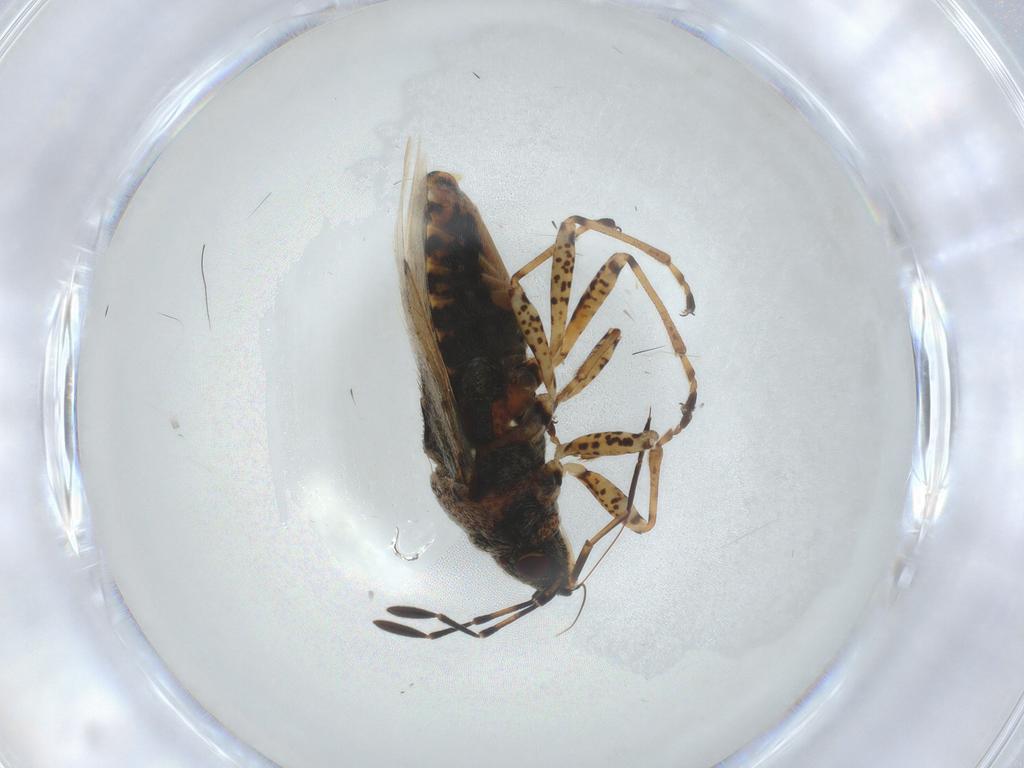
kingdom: Animalia
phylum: Arthropoda
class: Insecta
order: Hemiptera
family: Lygaeidae
